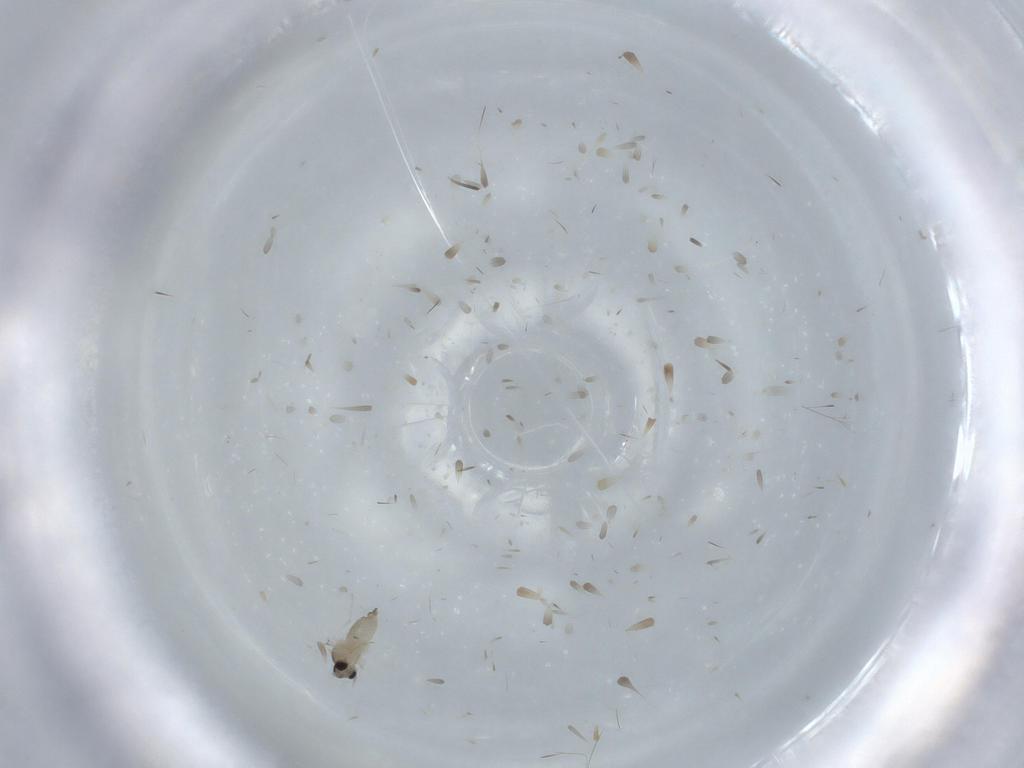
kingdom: Animalia
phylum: Arthropoda
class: Insecta
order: Diptera
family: Cecidomyiidae
